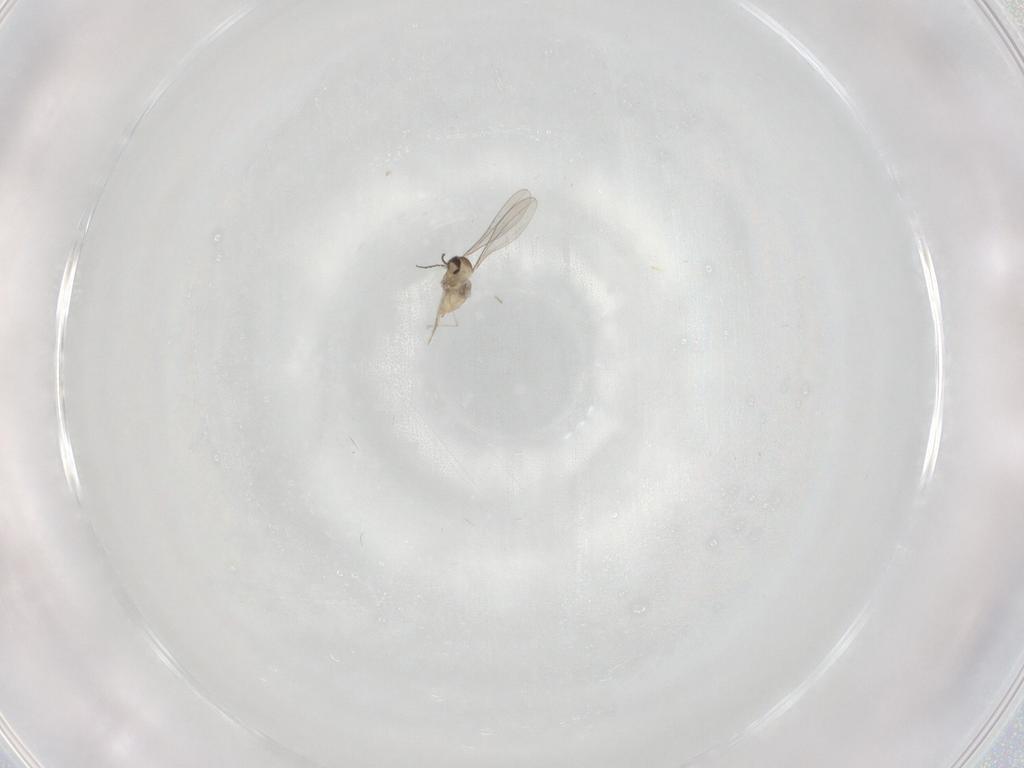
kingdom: Animalia
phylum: Arthropoda
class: Insecta
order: Diptera
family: Cecidomyiidae
